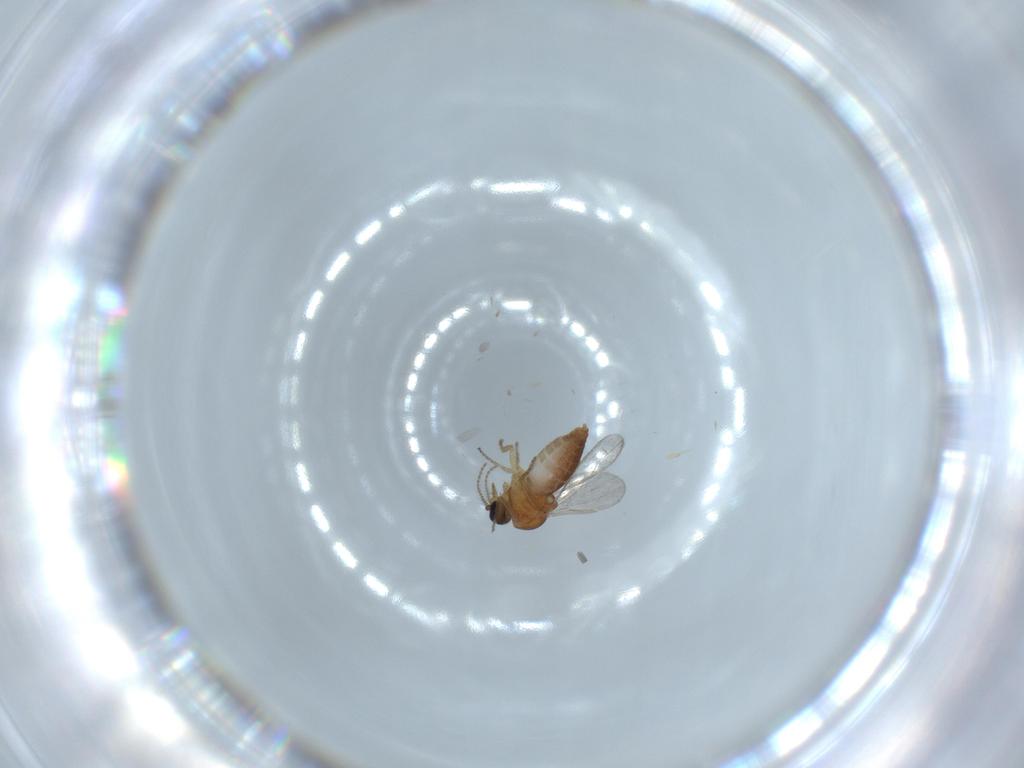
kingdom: Animalia
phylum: Arthropoda
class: Insecta
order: Diptera
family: Ceratopogonidae
